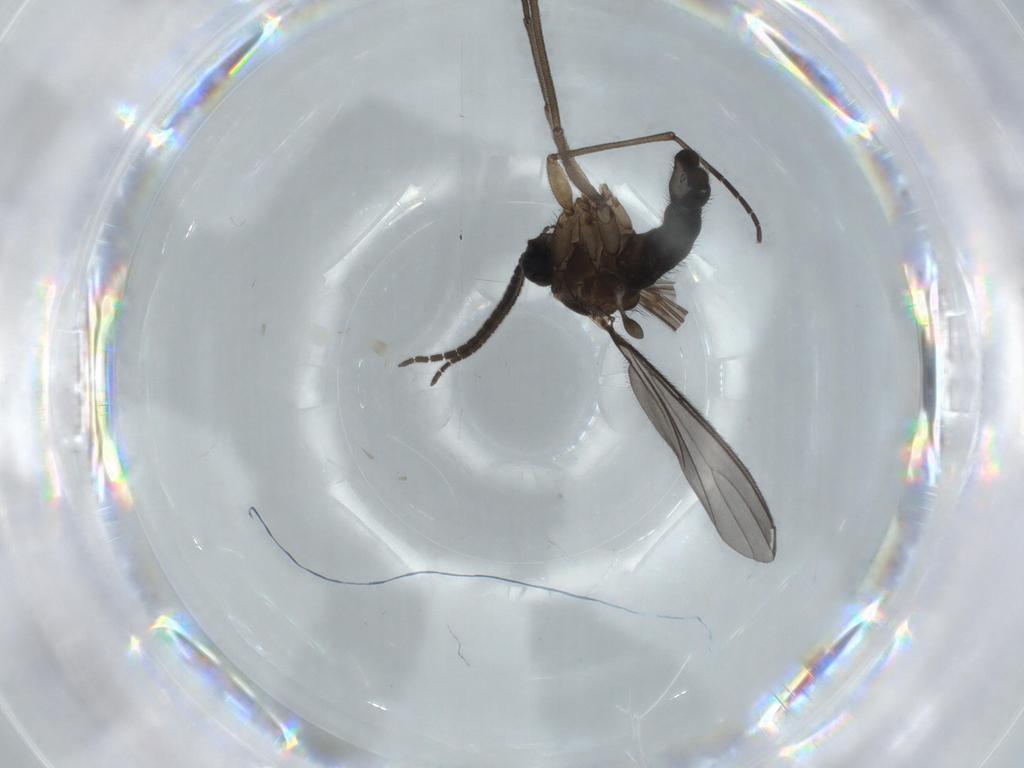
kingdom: Animalia
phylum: Arthropoda
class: Insecta
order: Diptera
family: Sciaridae
